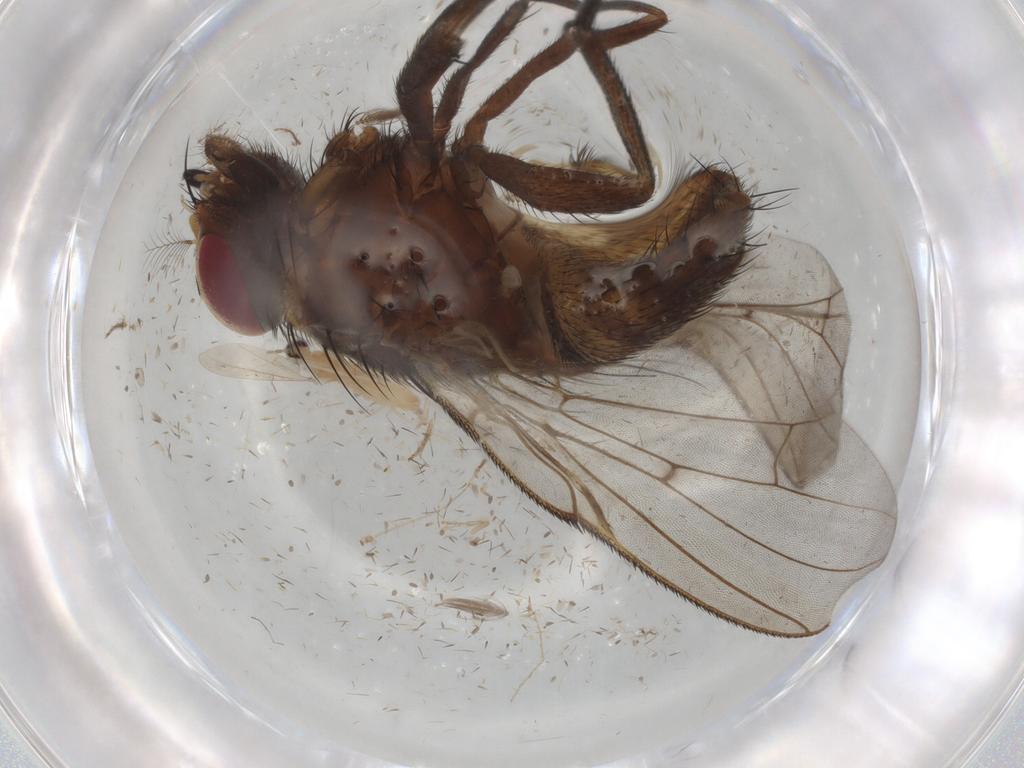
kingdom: Animalia
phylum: Arthropoda
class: Insecta
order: Diptera
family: Muscidae
